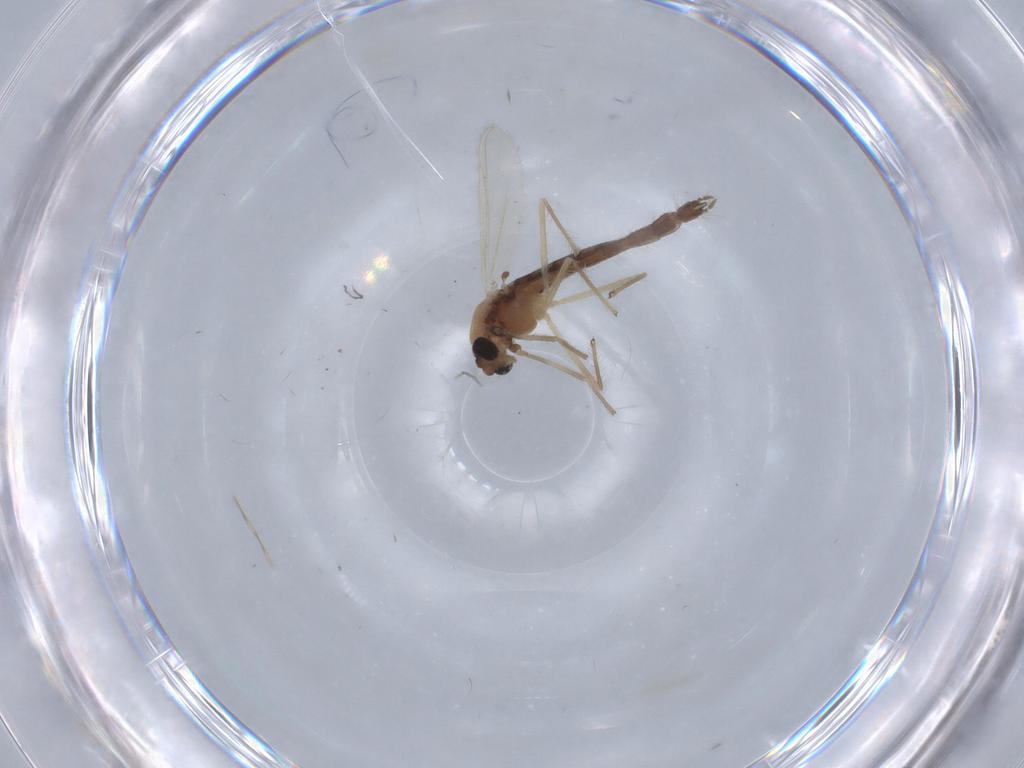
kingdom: Animalia
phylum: Arthropoda
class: Insecta
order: Diptera
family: Chironomidae
